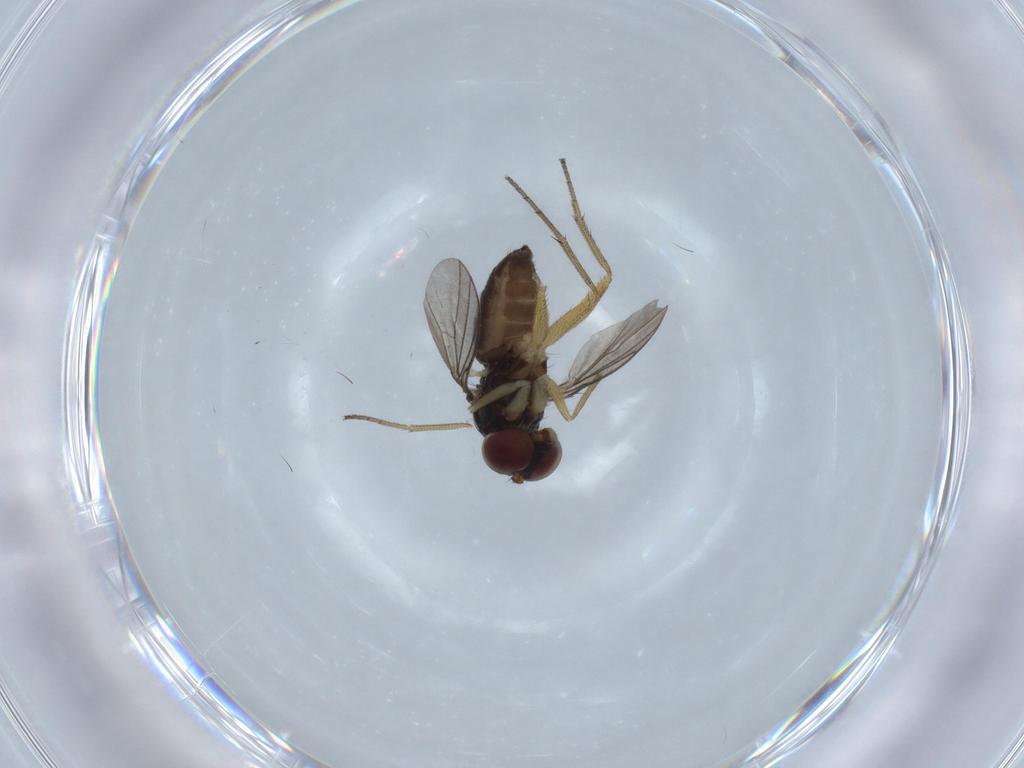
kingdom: Animalia
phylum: Arthropoda
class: Insecta
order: Diptera
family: Dolichopodidae
